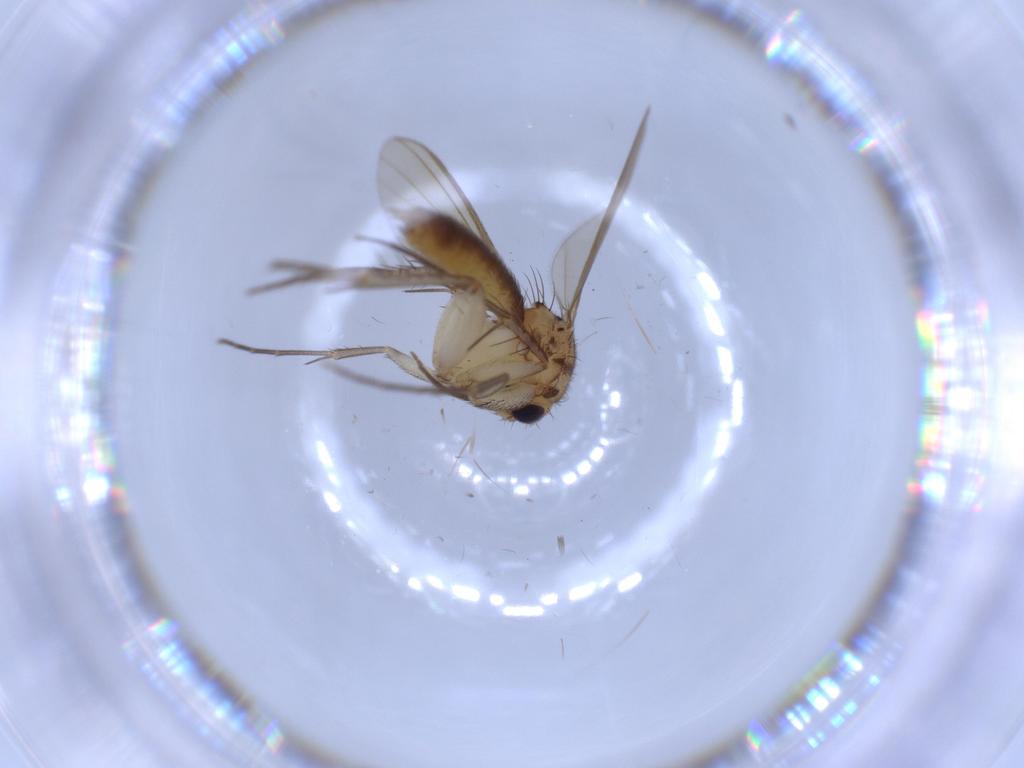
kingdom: Animalia
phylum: Arthropoda
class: Insecta
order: Diptera
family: Mycetophilidae
